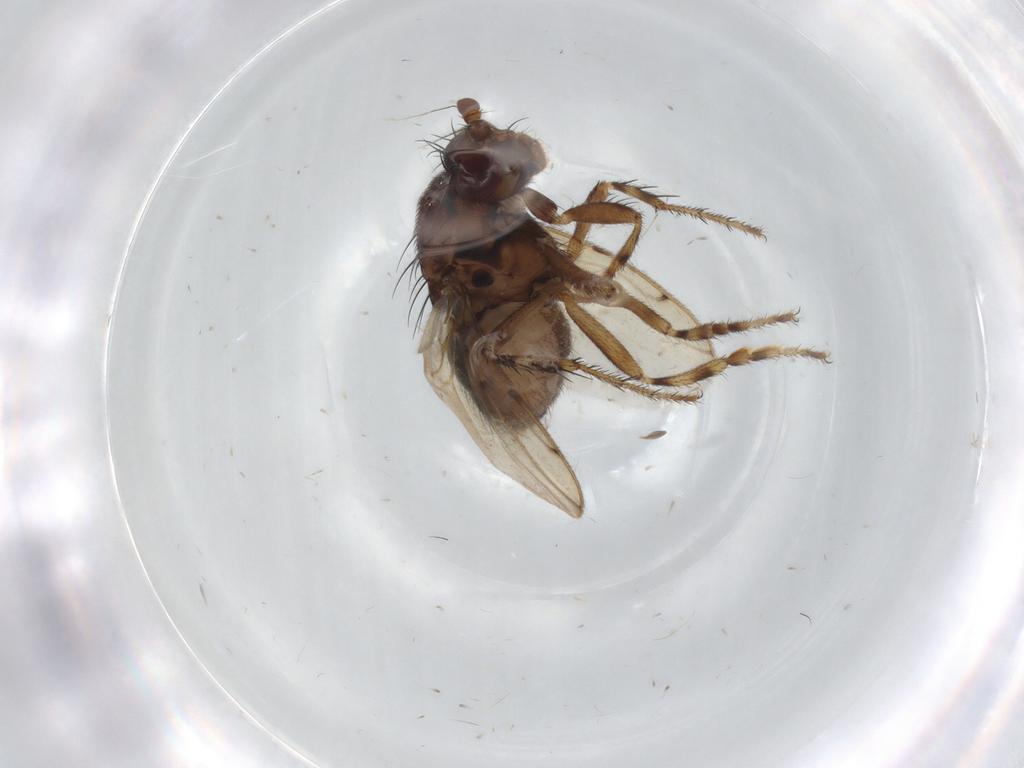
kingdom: Animalia
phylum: Arthropoda
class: Insecta
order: Diptera
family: Sphaeroceridae
